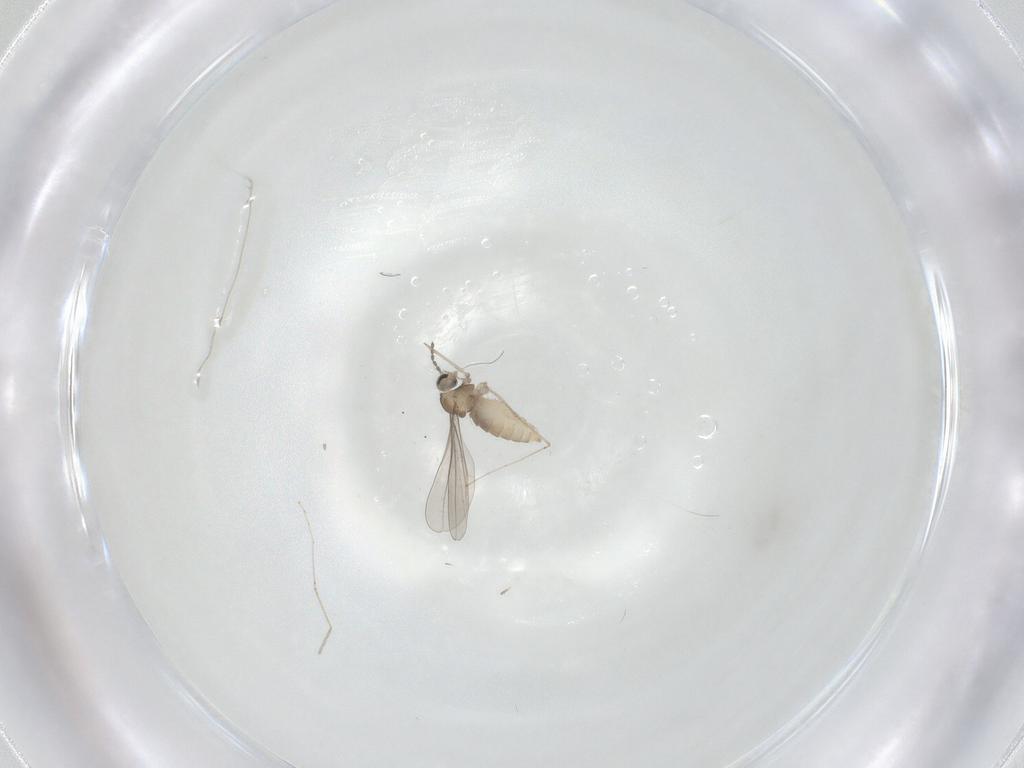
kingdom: Animalia
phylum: Arthropoda
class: Insecta
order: Diptera
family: Cecidomyiidae
